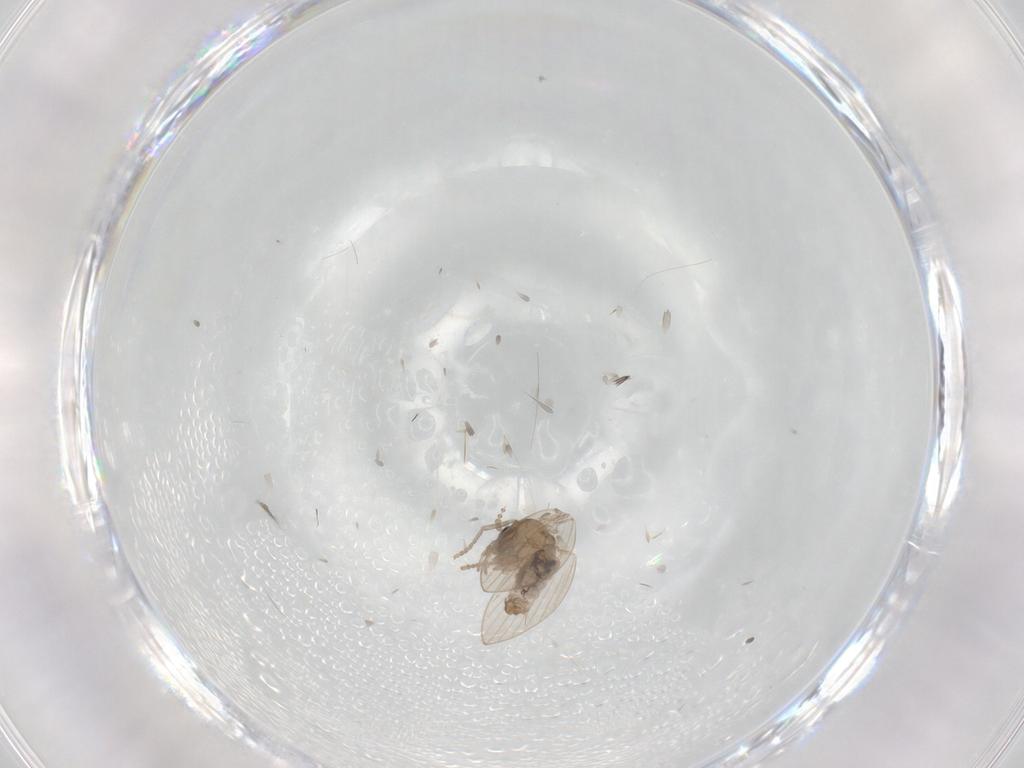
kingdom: Animalia
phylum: Arthropoda
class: Insecta
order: Diptera
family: Psychodidae
